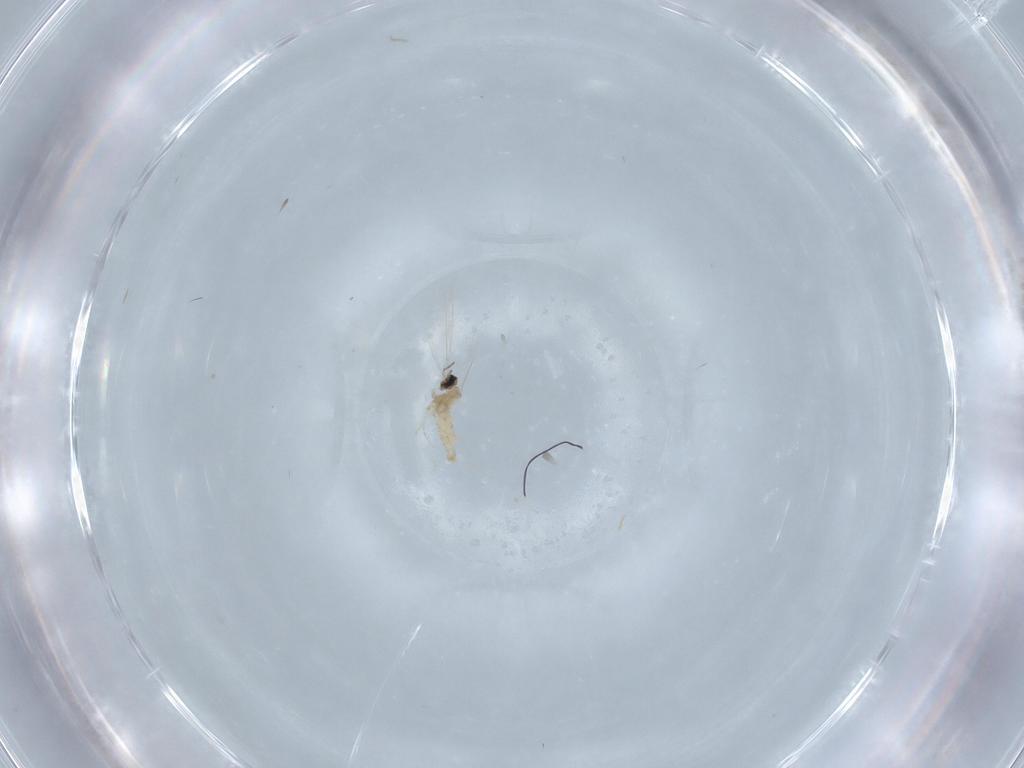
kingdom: Animalia
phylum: Arthropoda
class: Insecta
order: Diptera
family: Cecidomyiidae
